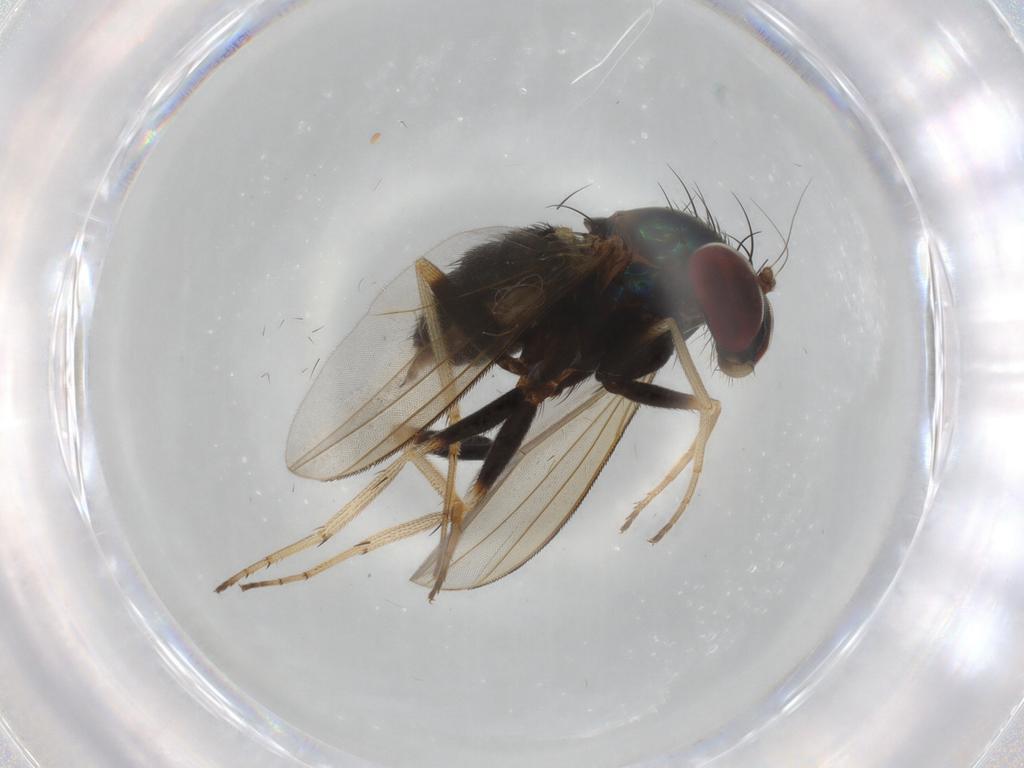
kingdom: Animalia
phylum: Arthropoda
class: Insecta
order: Diptera
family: Dolichopodidae
